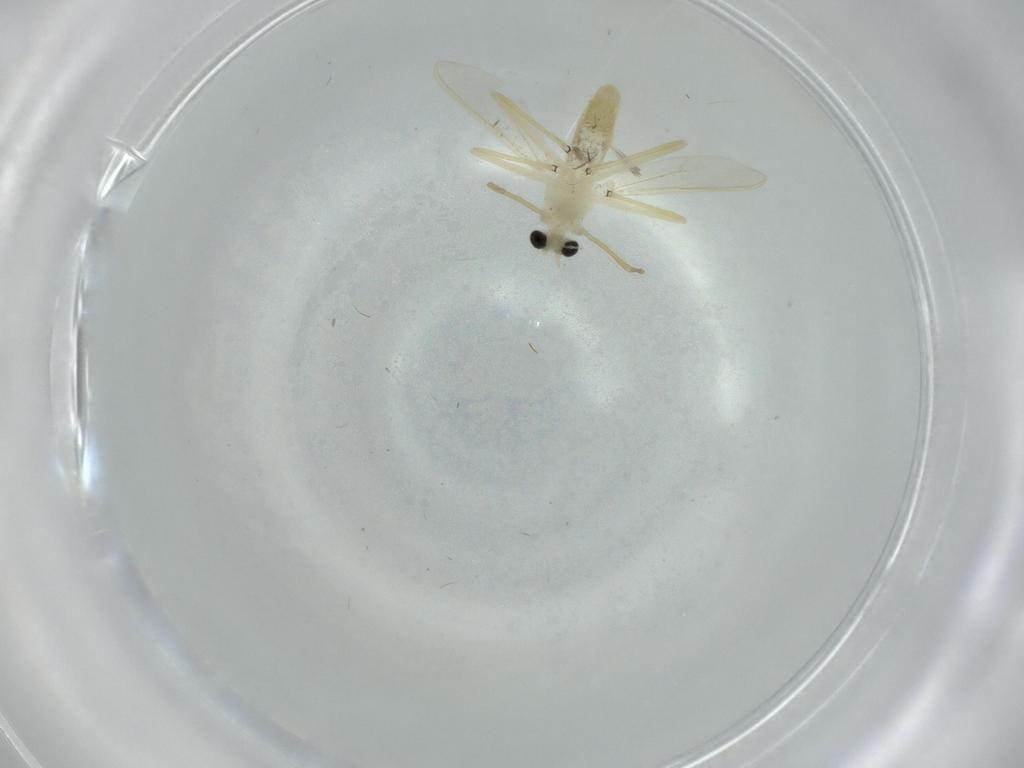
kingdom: Animalia
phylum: Arthropoda
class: Insecta
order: Diptera
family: Chironomidae
